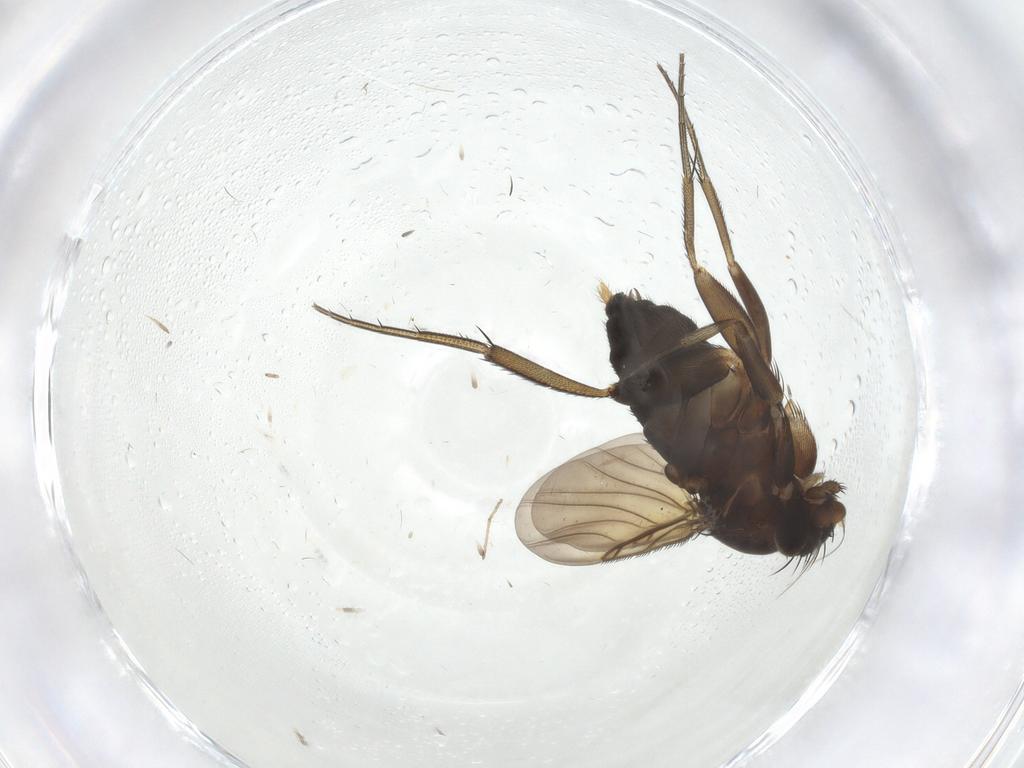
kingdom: Animalia
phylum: Arthropoda
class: Insecta
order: Diptera
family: Phoridae
